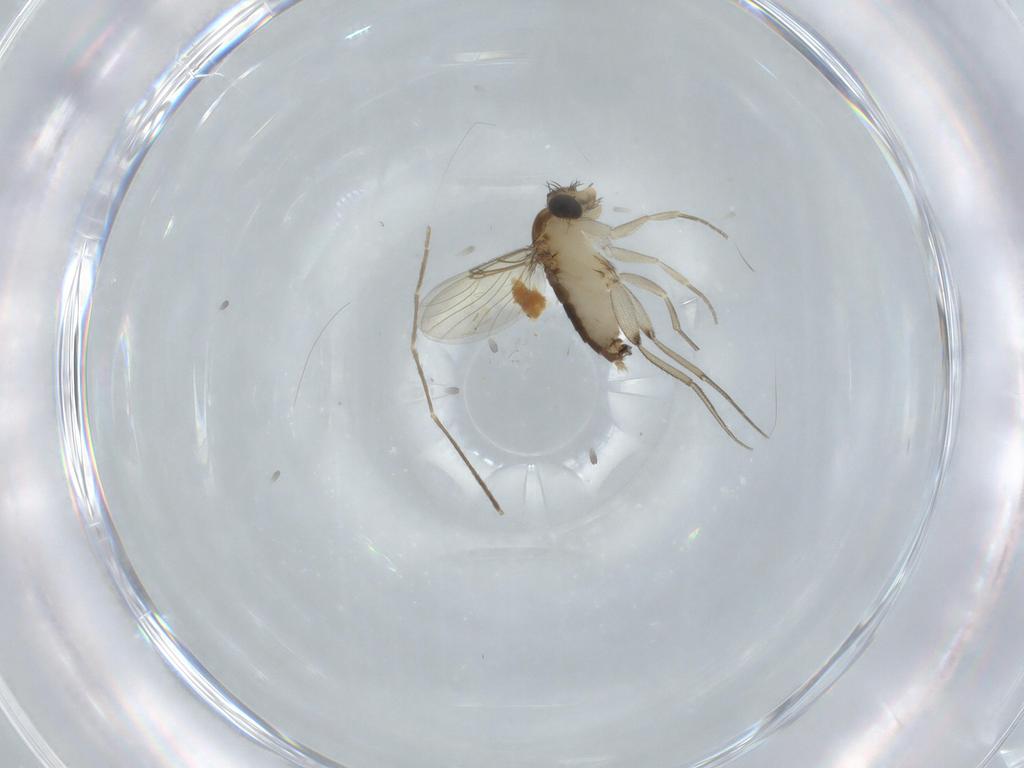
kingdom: Animalia
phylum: Arthropoda
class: Insecta
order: Diptera
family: Chironomidae
